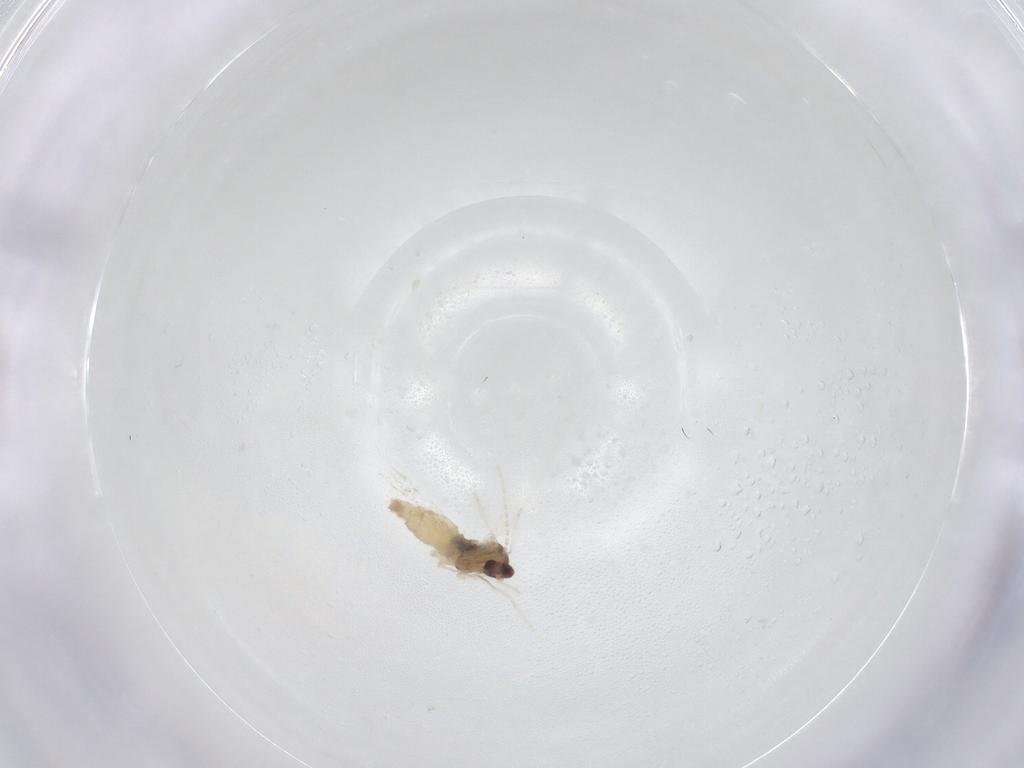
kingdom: Animalia
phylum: Arthropoda
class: Insecta
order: Diptera
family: Cecidomyiidae
